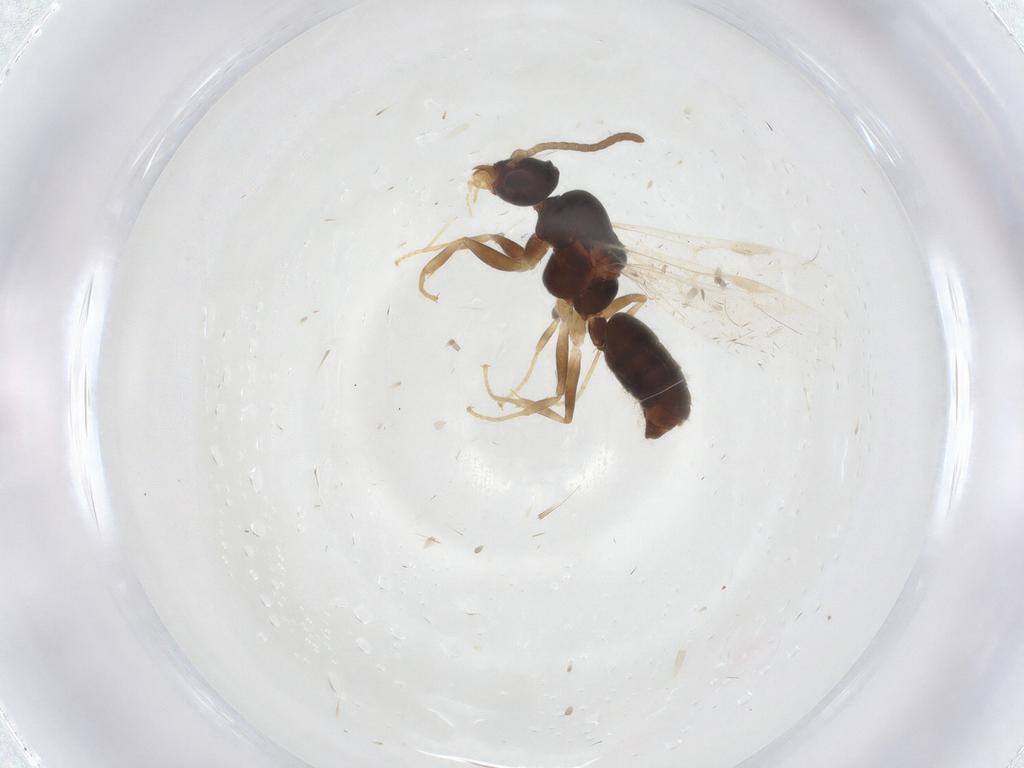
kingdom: Animalia
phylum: Arthropoda
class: Insecta
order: Hymenoptera
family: Formicidae
